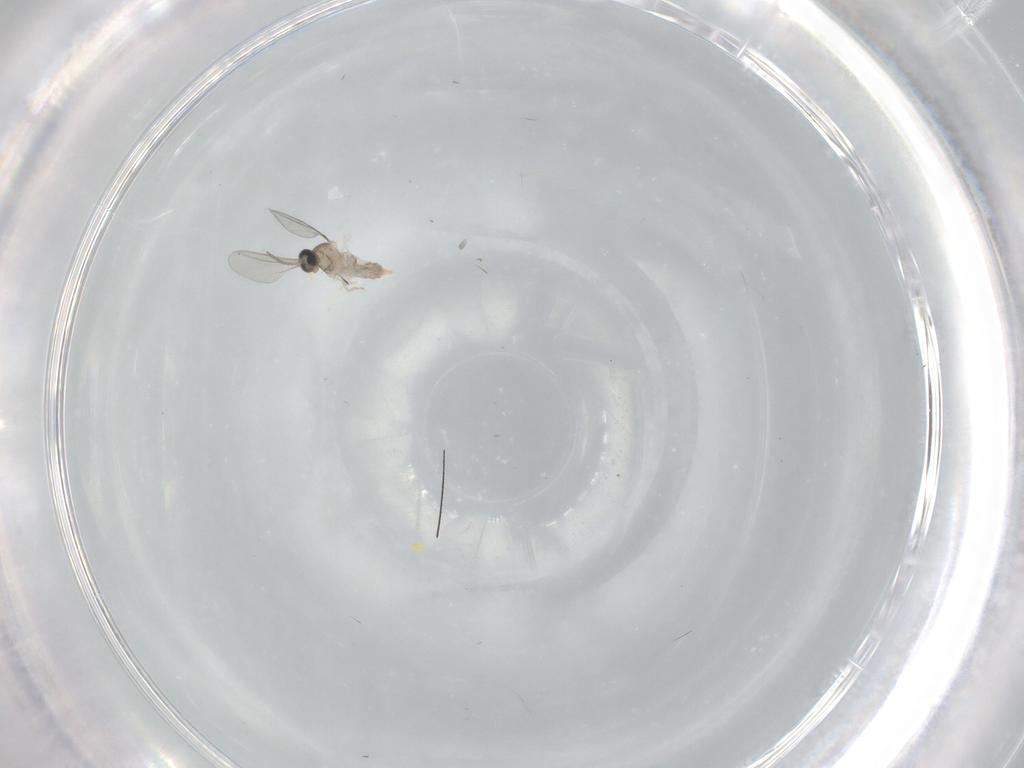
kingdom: Animalia
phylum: Arthropoda
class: Insecta
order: Diptera
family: Cecidomyiidae
